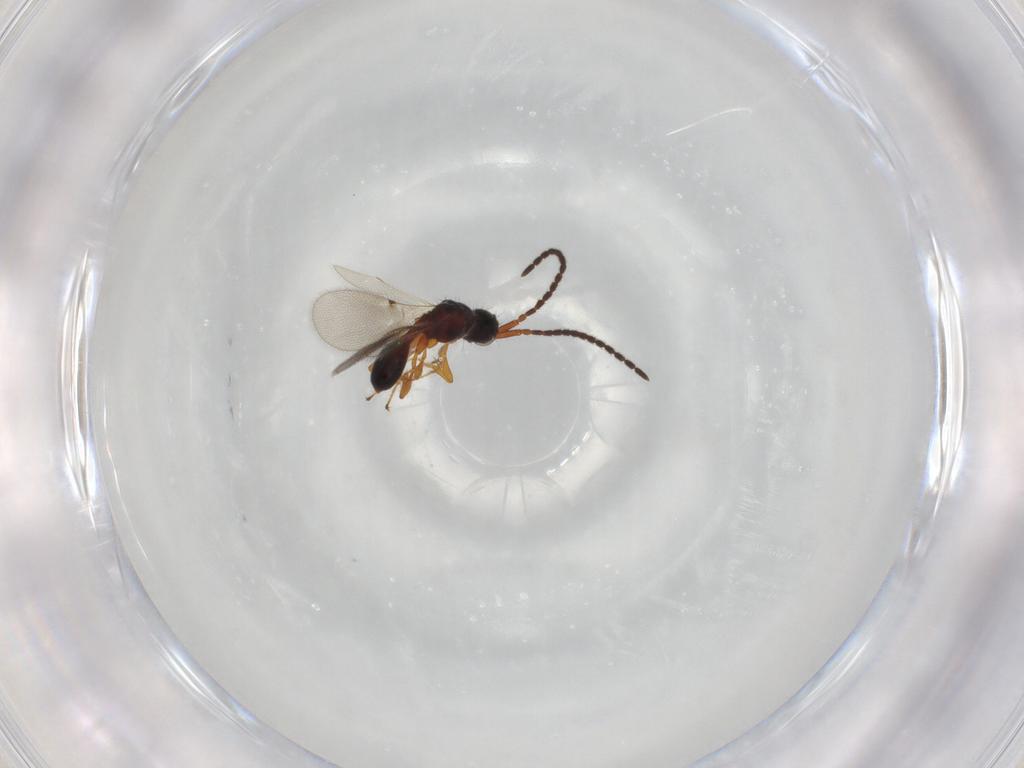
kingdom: Animalia
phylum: Arthropoda
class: Insecta
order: Hymenoptera
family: Diapriidae
